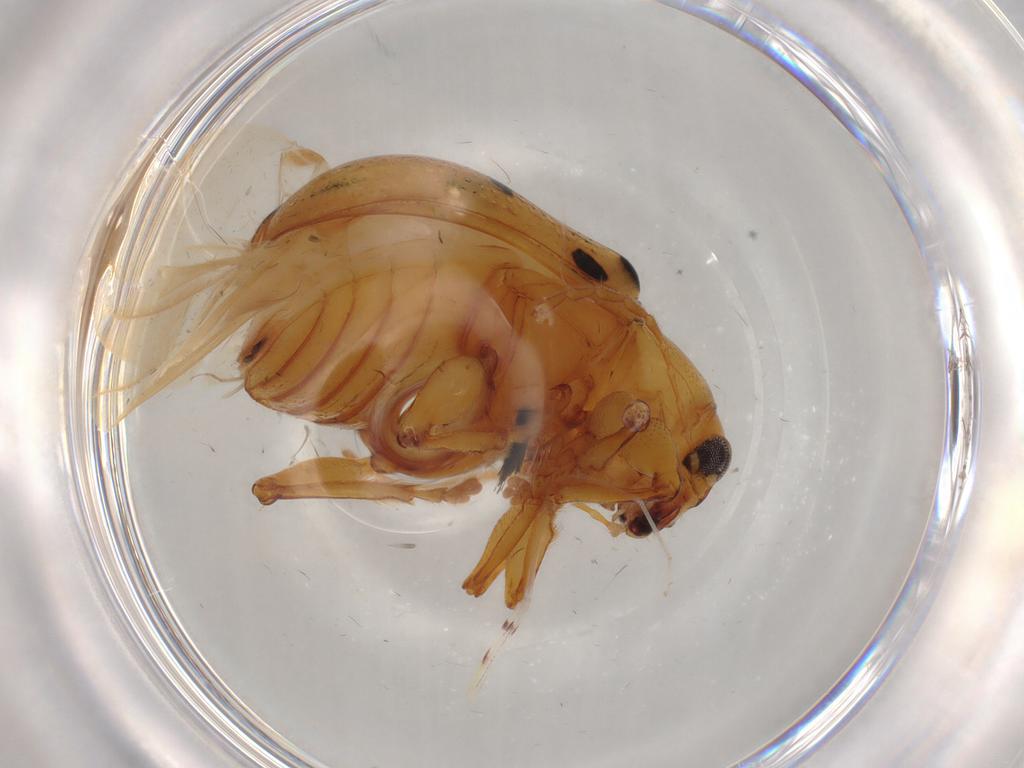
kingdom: Animalia
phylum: Arthropoda
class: Insecta
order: Coleoptera
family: Chrysomelidae
